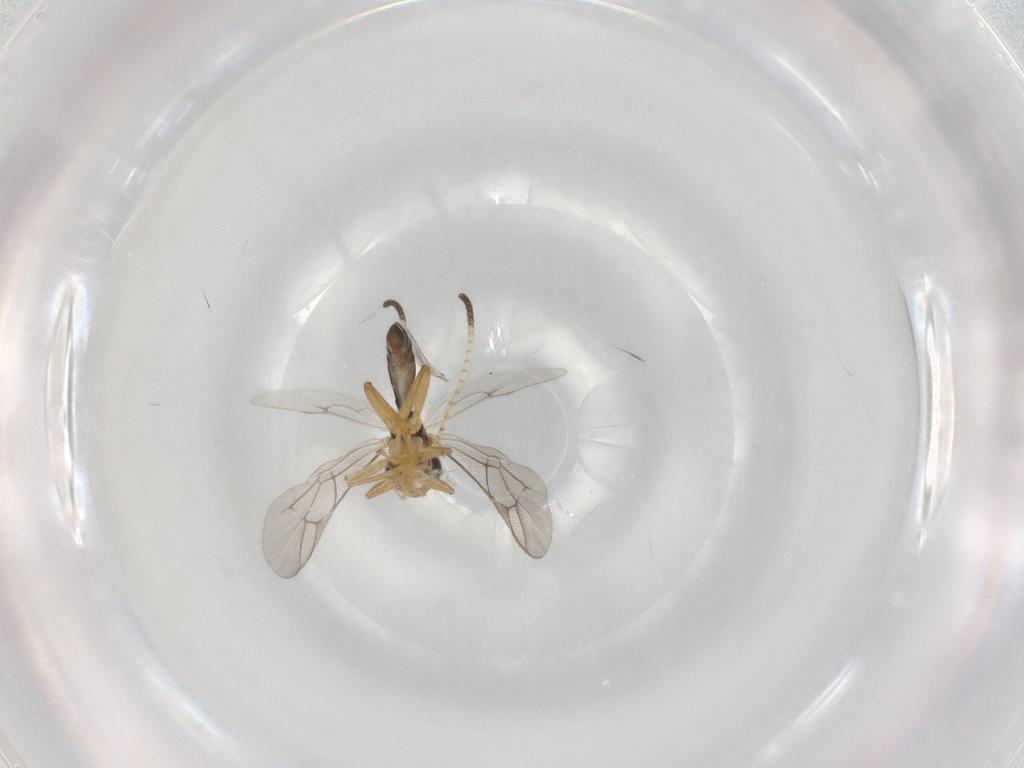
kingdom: Animalia
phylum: Arthropoda
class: Insecta
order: Hymenoptera
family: Ichneumonidae
